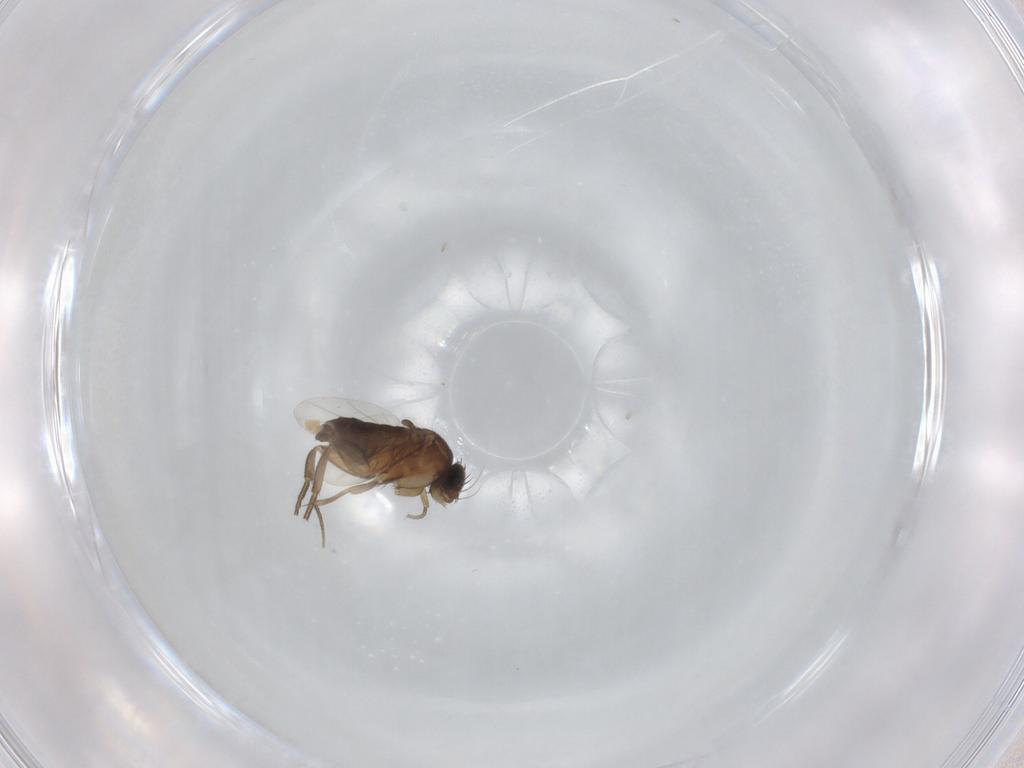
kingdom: Animalia
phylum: Arthropoda
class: Insecta
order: Diptera
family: Phoridae
